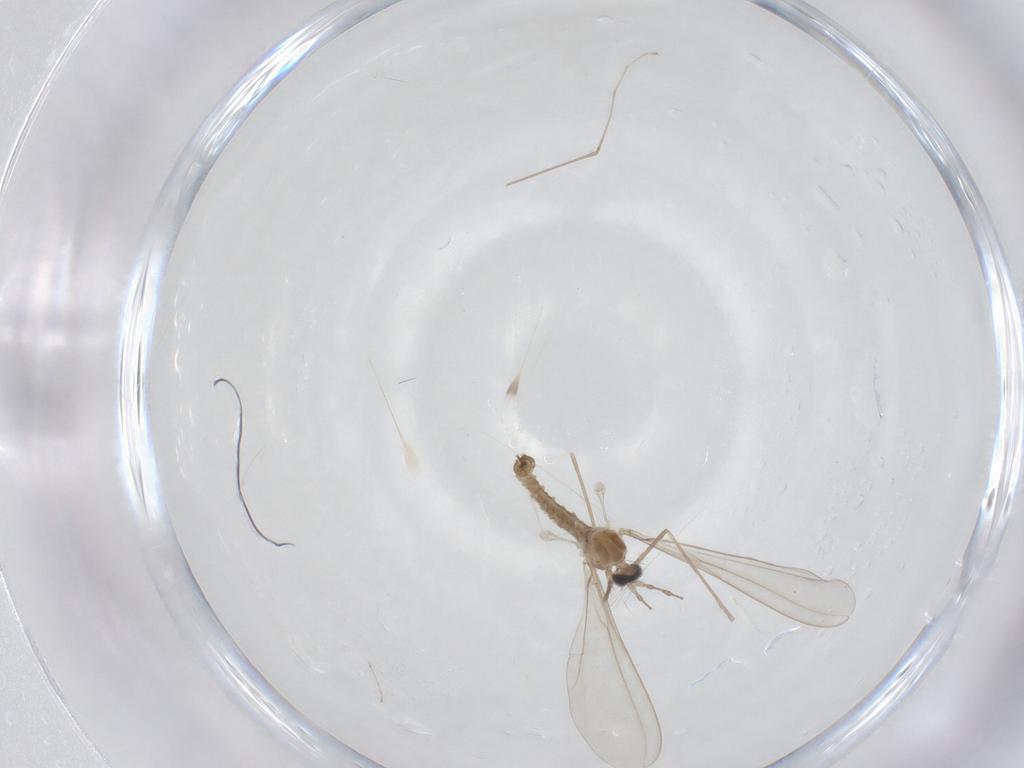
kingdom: Animalia
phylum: Arthropoda
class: Insecta
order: Diptera
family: Cecidomyiidae
